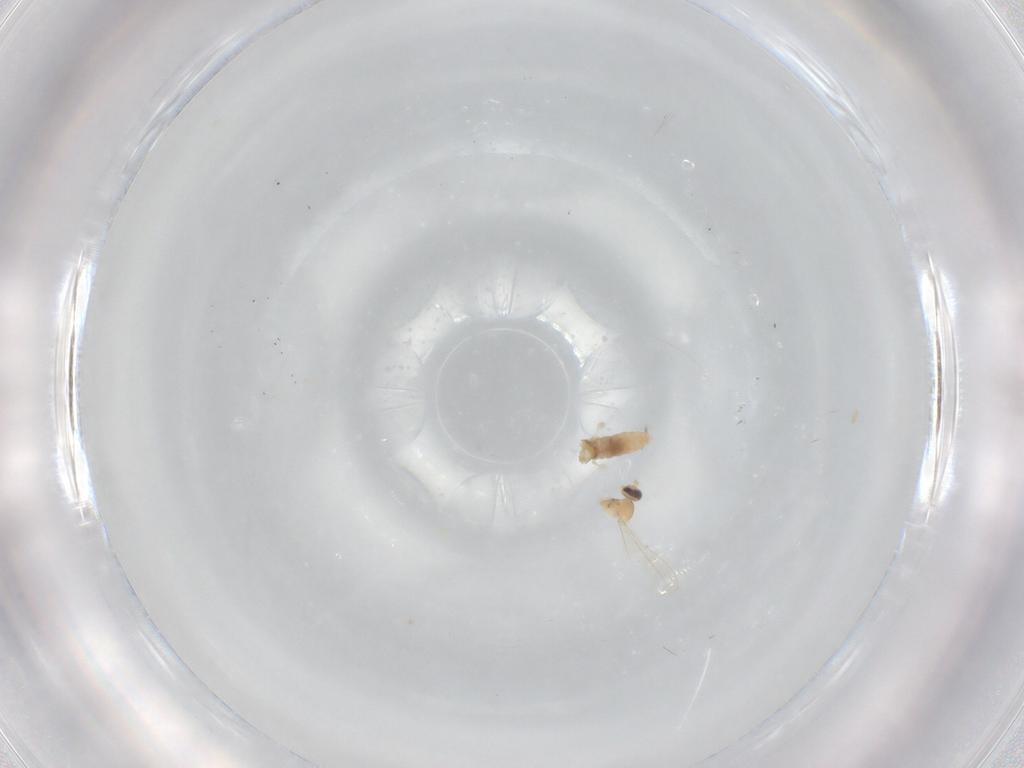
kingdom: Animalia
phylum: Arthropoda
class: Insecta
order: Diptera
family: Cecidomyiidae
